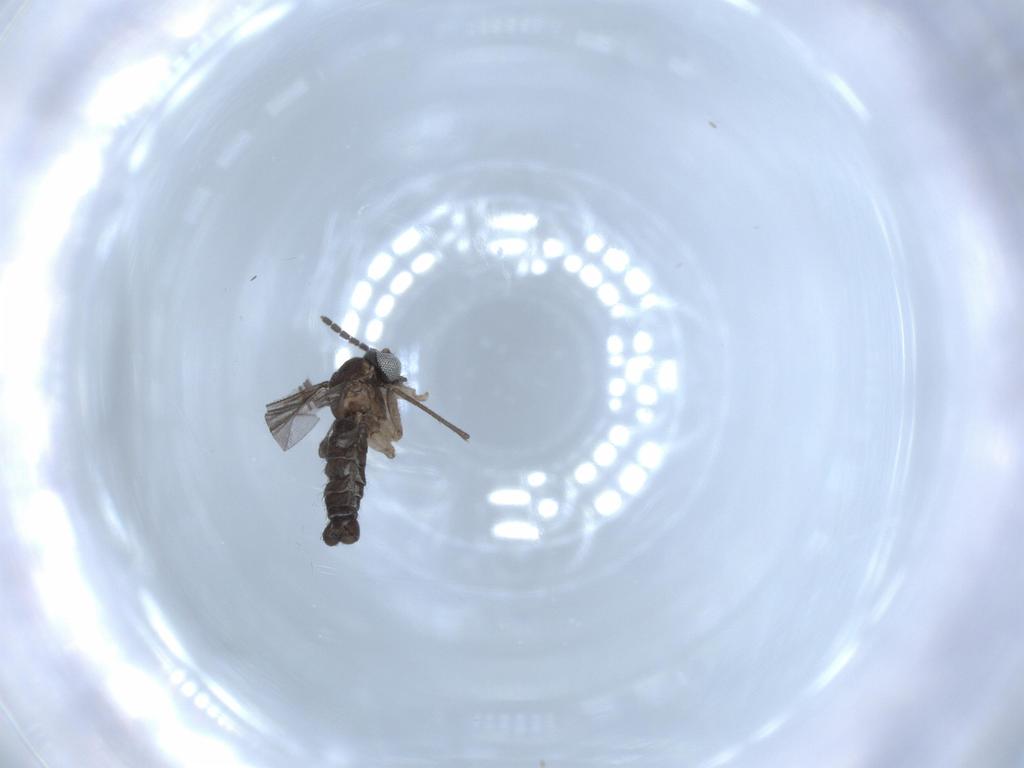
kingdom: Animalia
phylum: Arthropoda
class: Insecta
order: Diptera
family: Sciaridae
